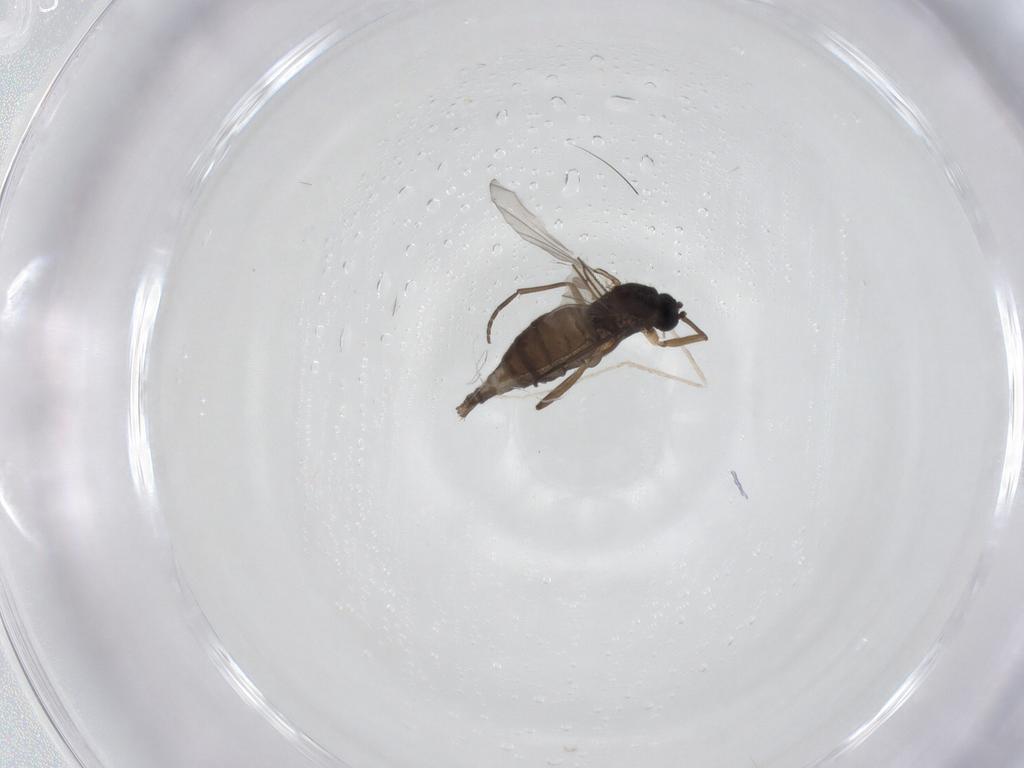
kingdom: Animalia
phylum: Arthropoda
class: Insecta
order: Diptera
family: Sciaridae
